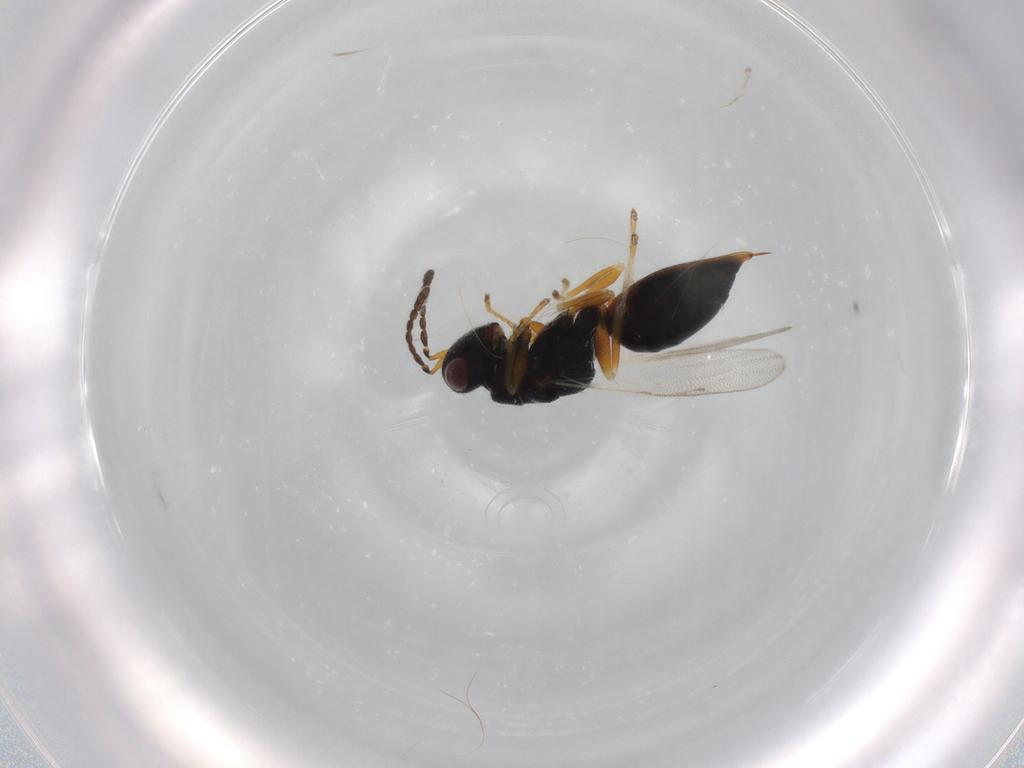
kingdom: Animalia
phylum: Arthropoda
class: Insecta
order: Hymenoptera
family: Eurytomidae
